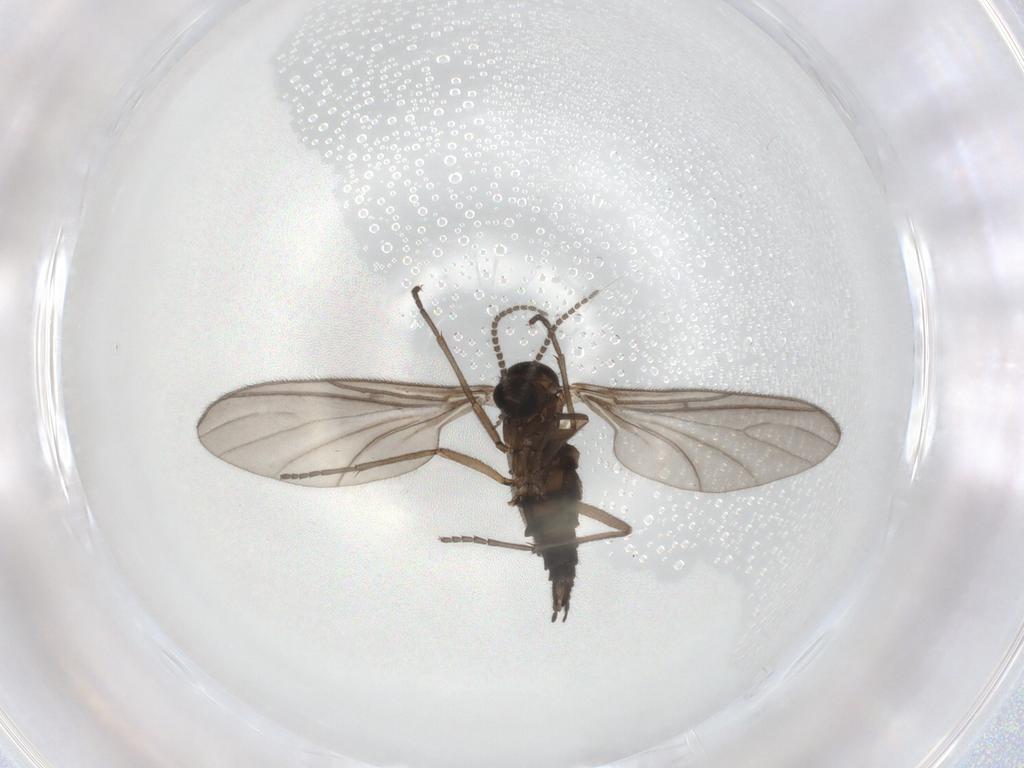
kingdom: Animalia
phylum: Arthropoda
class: Insecta
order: Diptera
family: Sciaridae
